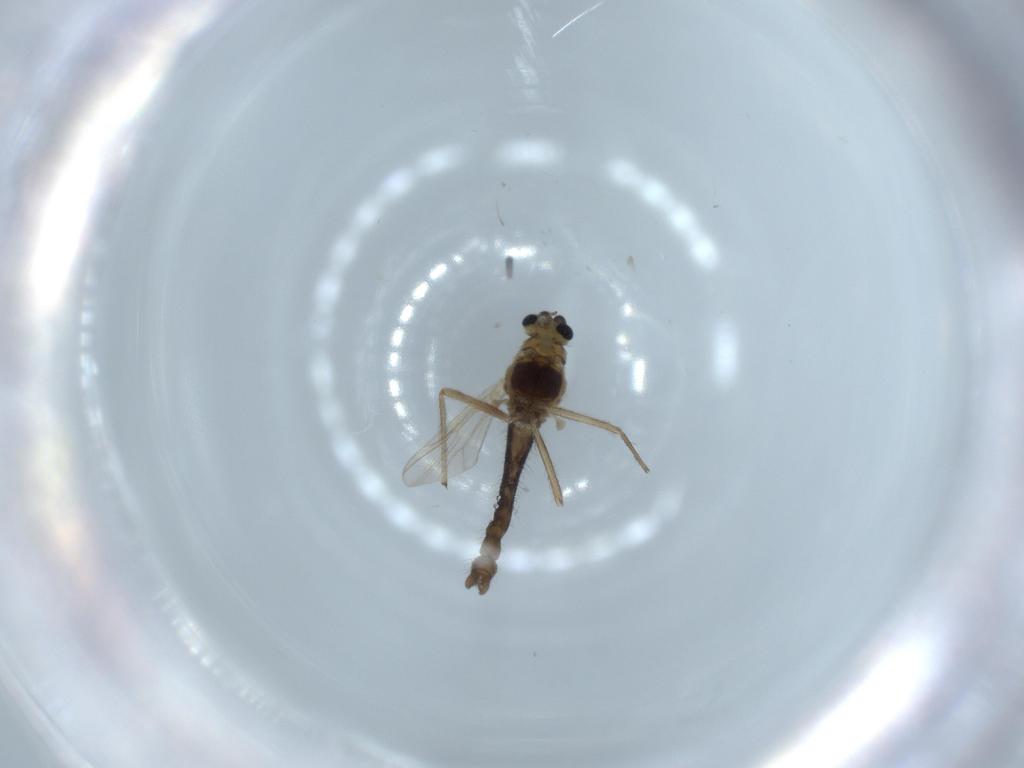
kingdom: Animalia
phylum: Arthropoda
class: Insecta
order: Diptera
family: Chironomidae
